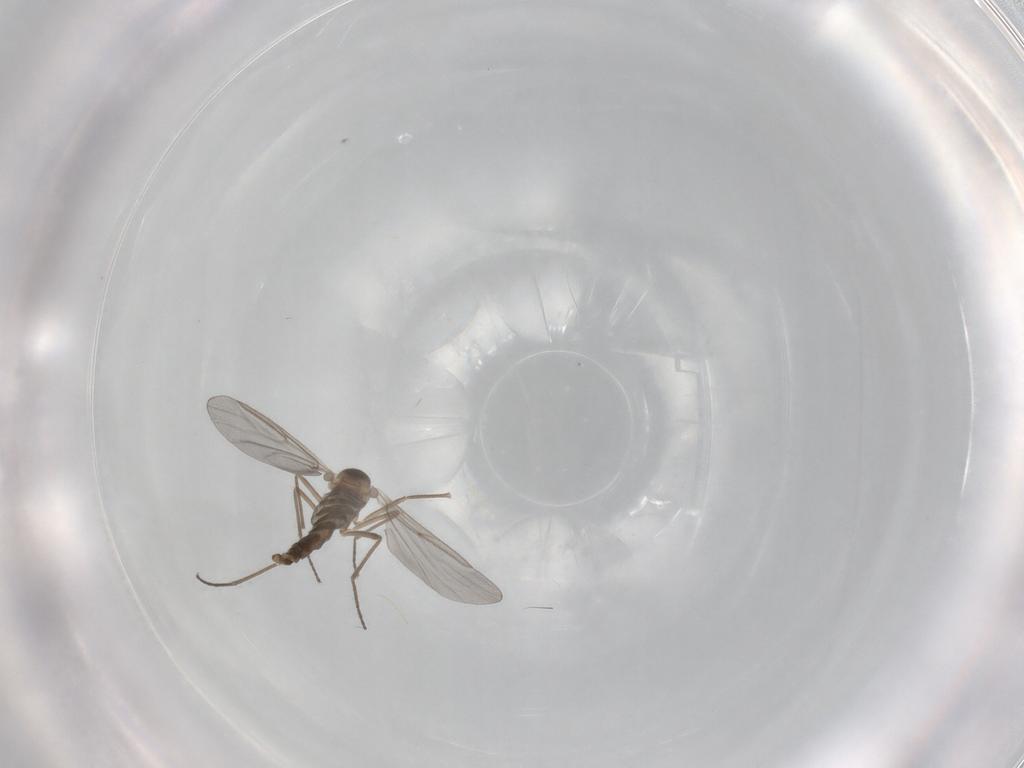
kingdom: Animalia
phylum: Arthropoda
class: Insecta
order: Diptera
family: Cecidomyiidae
